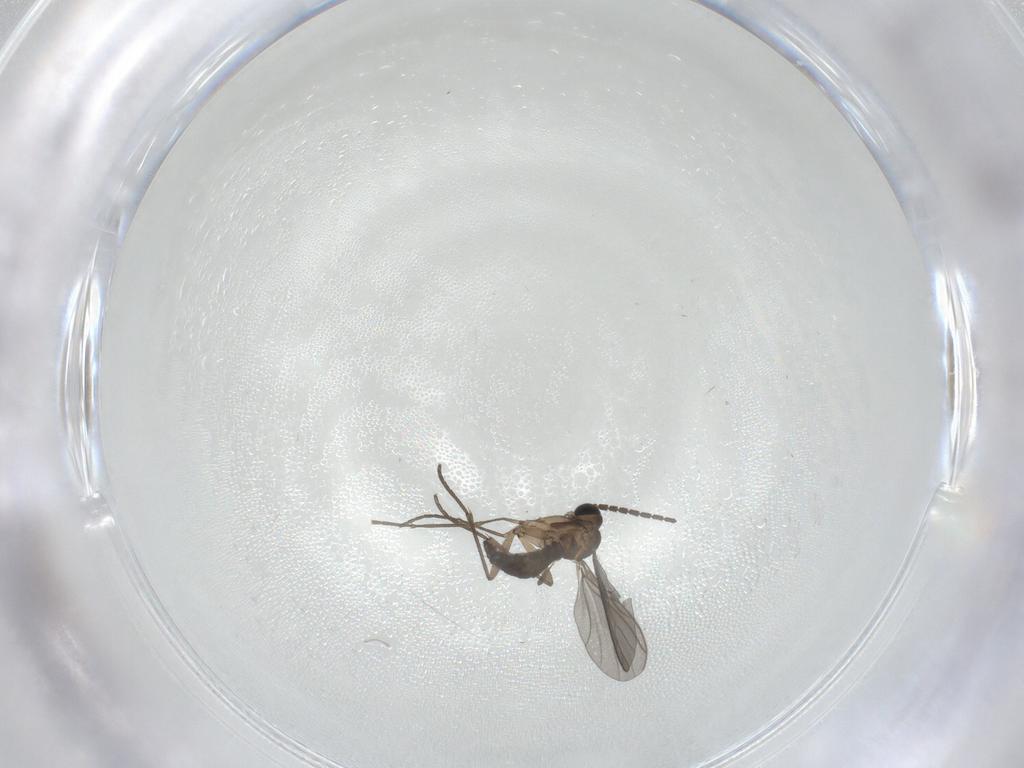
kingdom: Animalia
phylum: Arthropoda
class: Insecta
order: Diptera
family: Sciaridae
